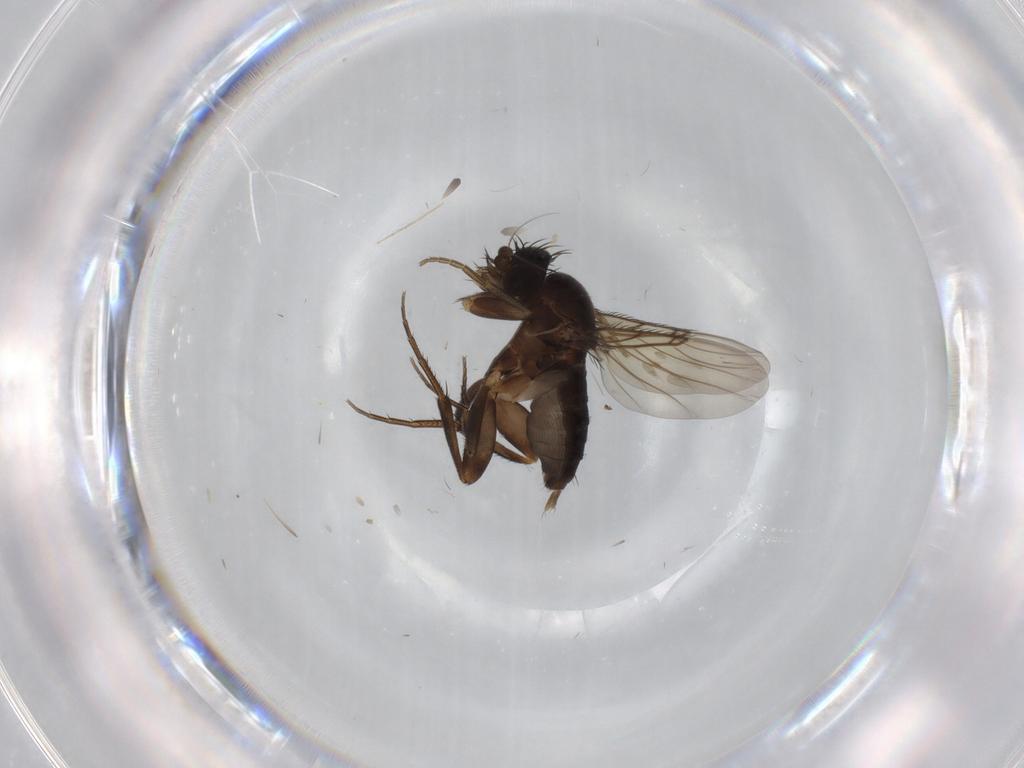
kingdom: Animalia
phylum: Arthropoda
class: Insecta
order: Diptera
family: Phoridae
